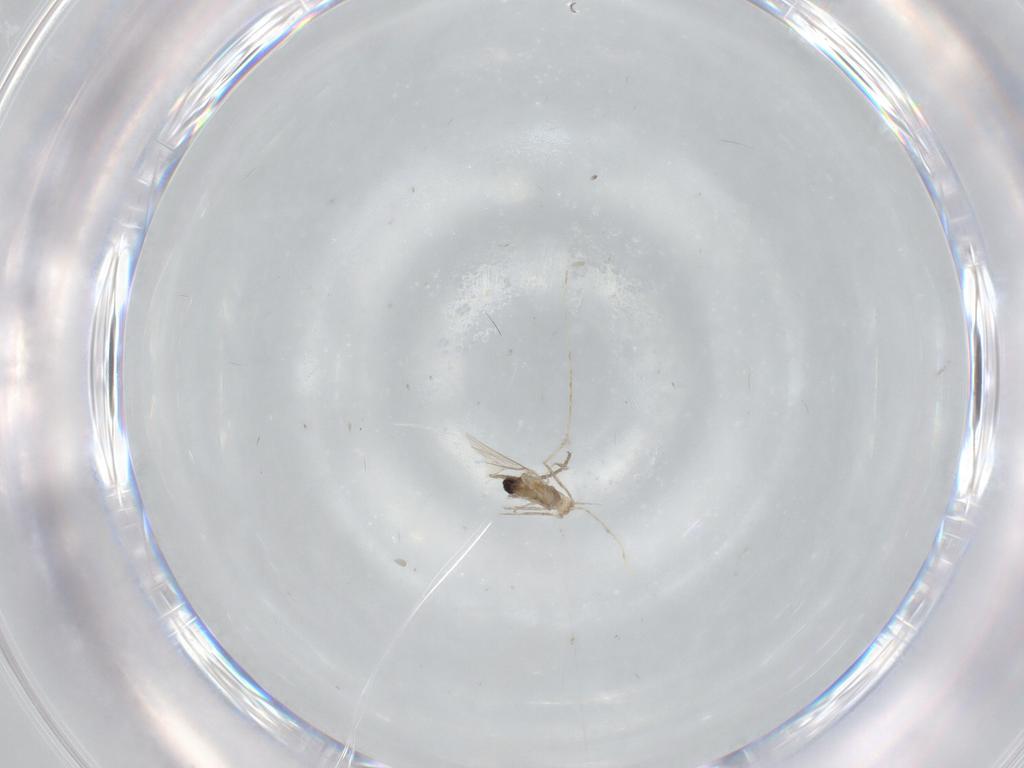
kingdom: Animalia
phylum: Arthropoda
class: Insecta
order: Diptera
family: Cecidomyiidae
